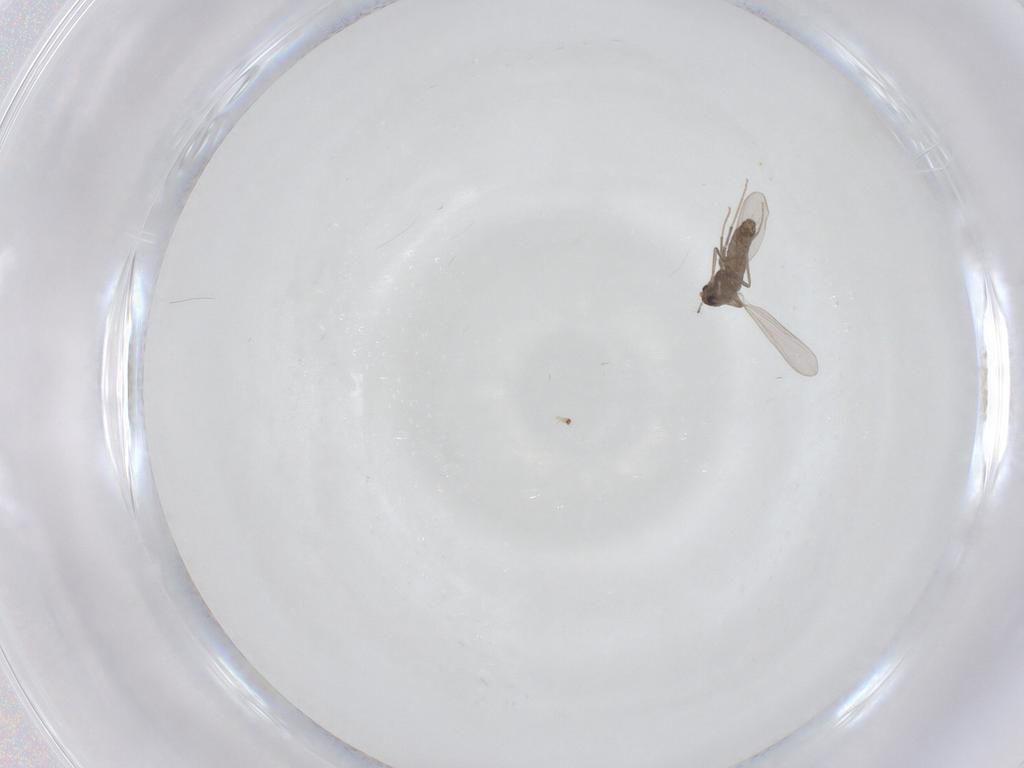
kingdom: Animalia
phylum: Arthropoda
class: Insecta
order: Diptera
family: Chironomidae
